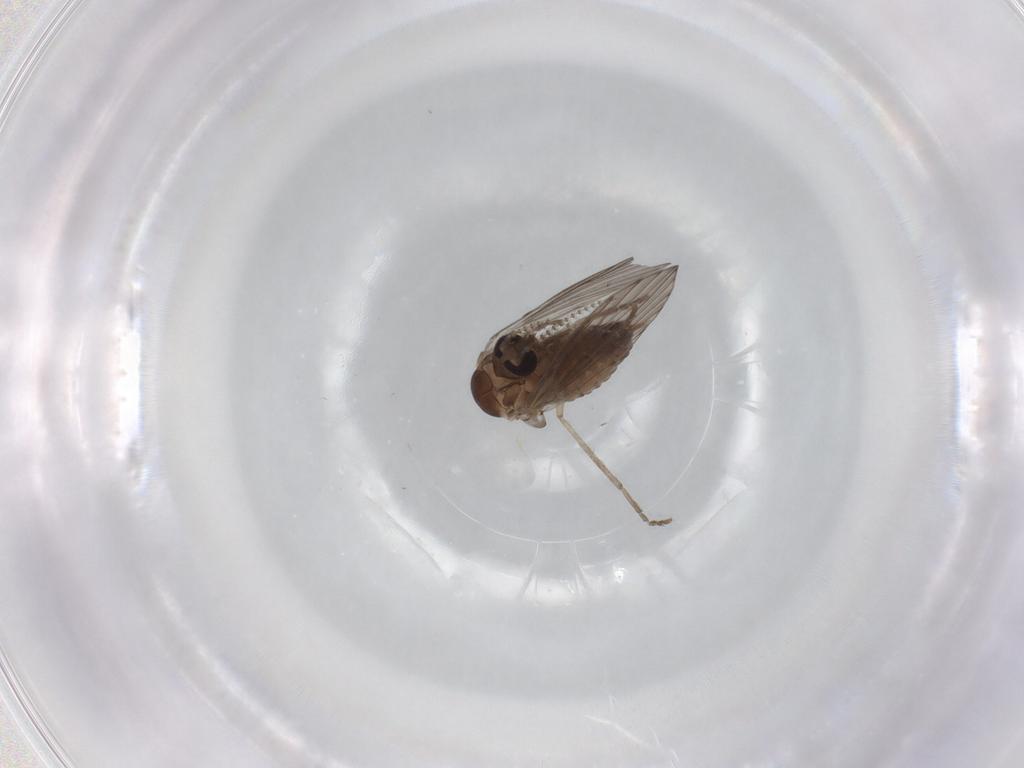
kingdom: Animalia
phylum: Arthropoda
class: Insecta
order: Diptera
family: Psychodidae
